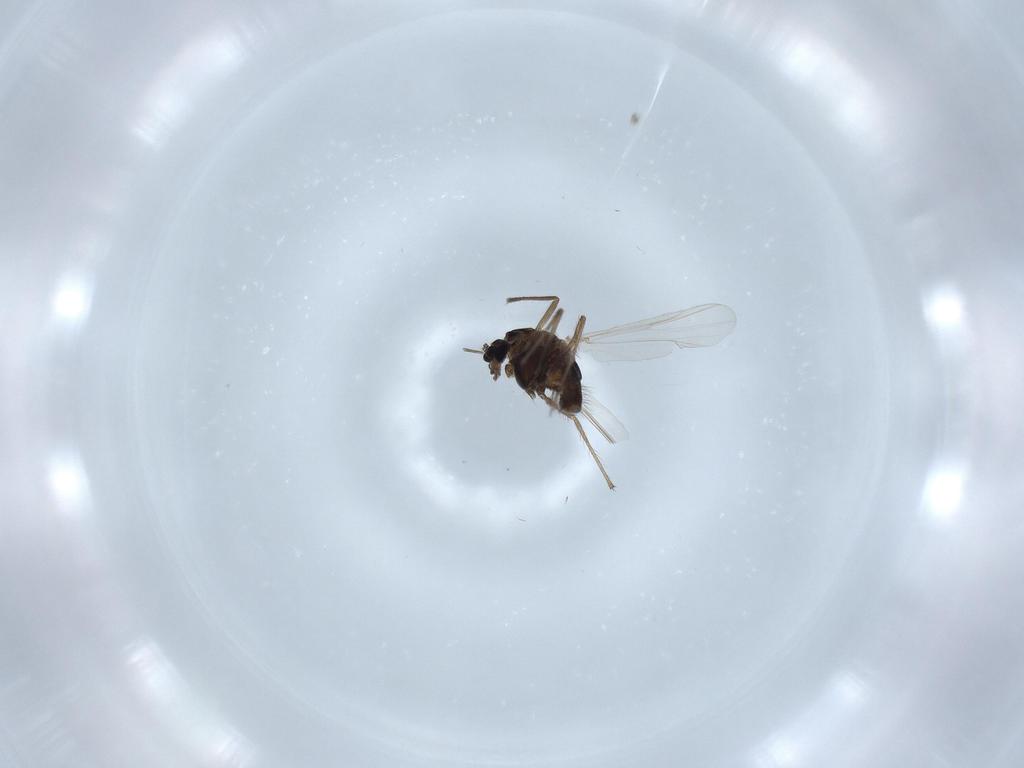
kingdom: Animalia
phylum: Arthropoda
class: Insecta
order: Diptera
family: Chironomidae
